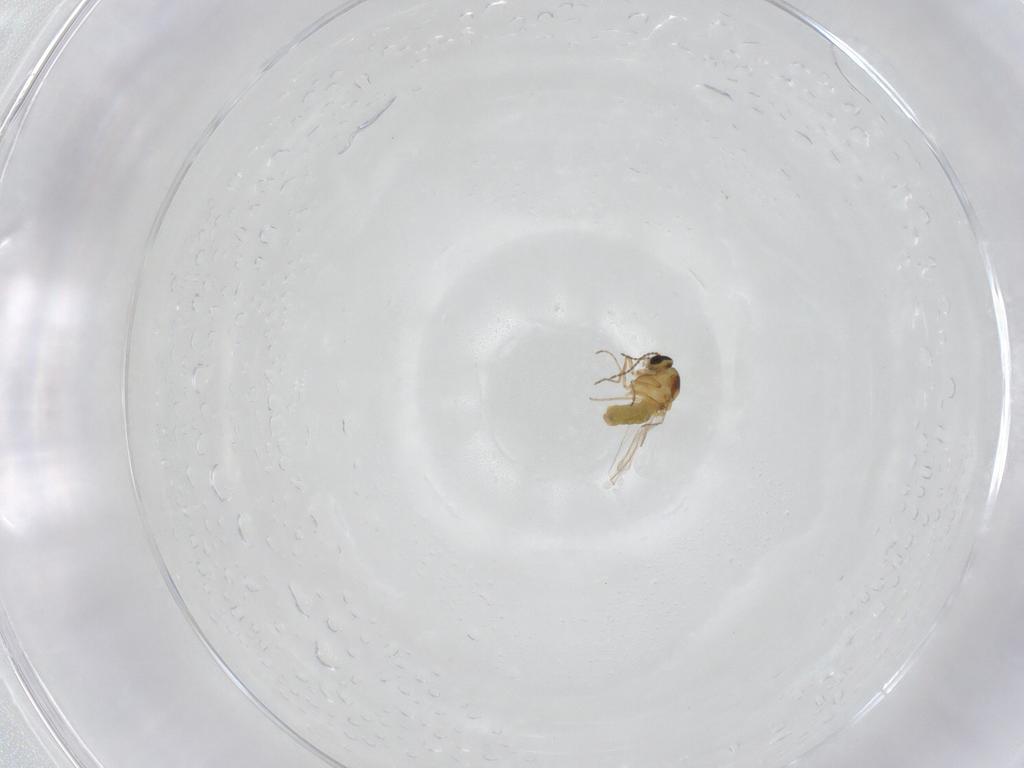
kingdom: Animalia
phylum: Arthropoda
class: Insecta
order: Diptera
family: Ceratopogonidae
